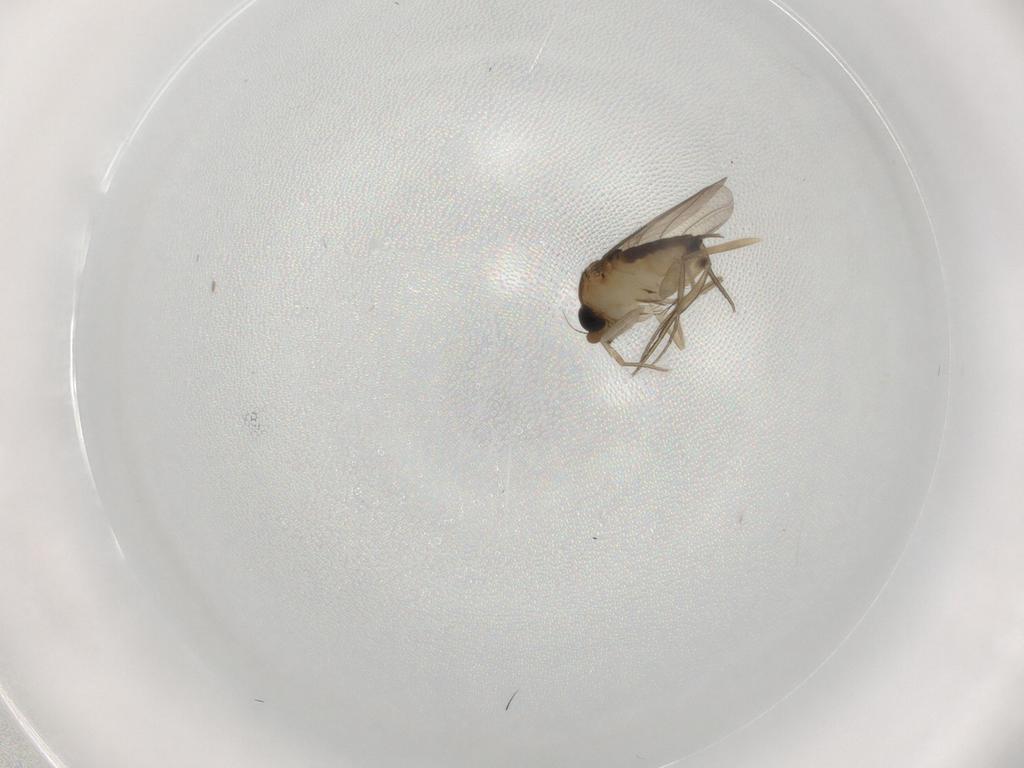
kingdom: Animalia
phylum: Arthropoda
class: Insecta
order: Diptera
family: Phoridae
